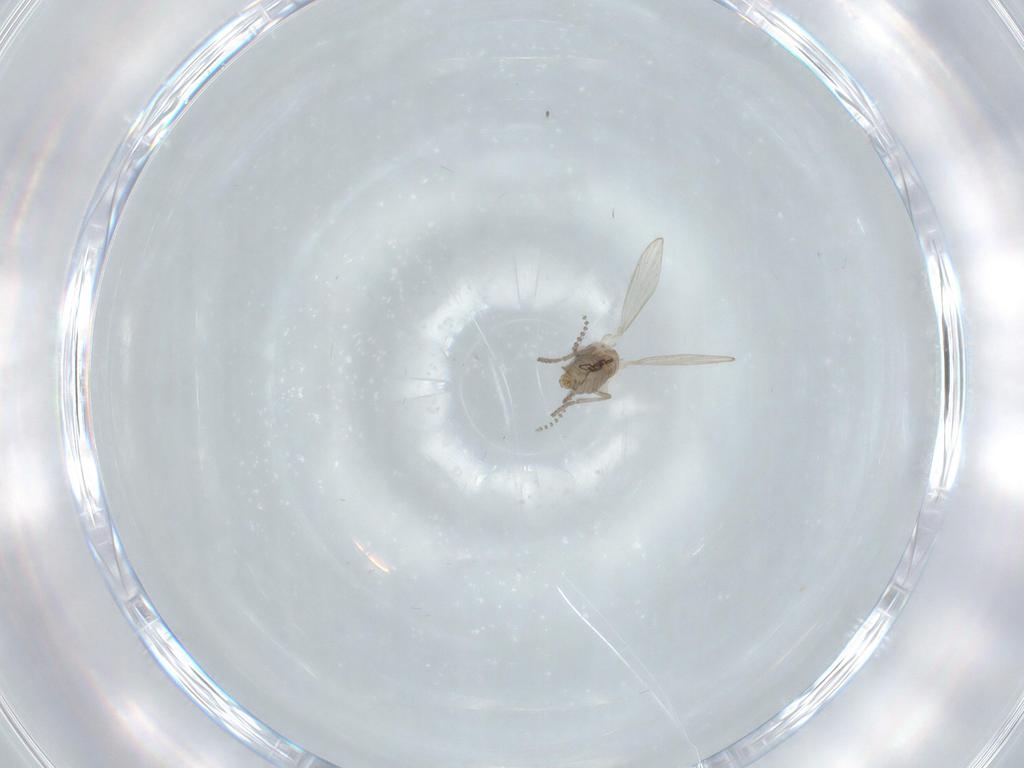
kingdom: Animalia
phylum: Arthropoda
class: Insecta
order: Diptera
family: Psychodidae
